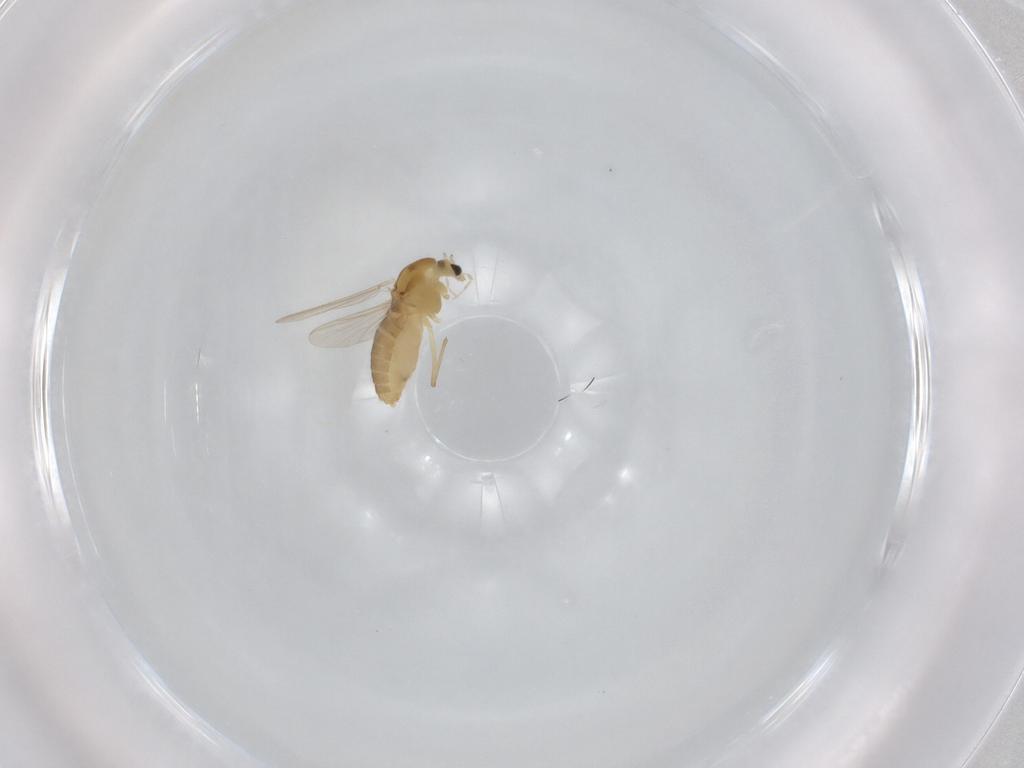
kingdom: Animalia
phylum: Arthropoda
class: Insecta
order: Diptera
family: Chironomidae
